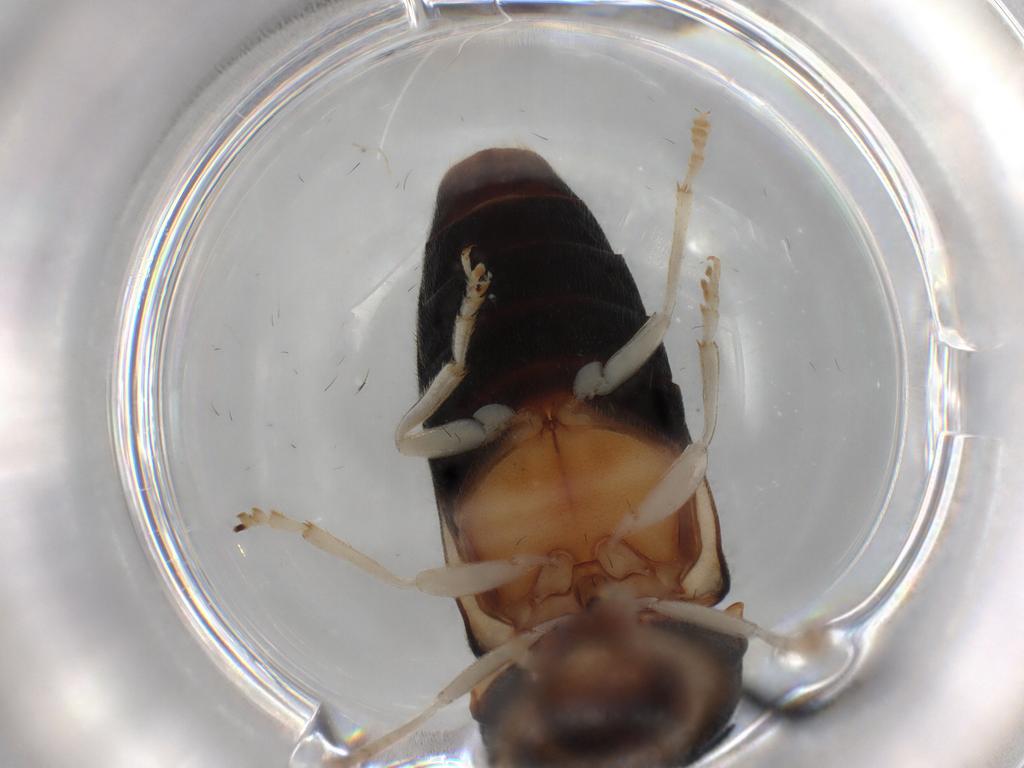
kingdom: Animalia
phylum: Arthropoda
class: Insecta
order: Coleoptera
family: Elateridae
